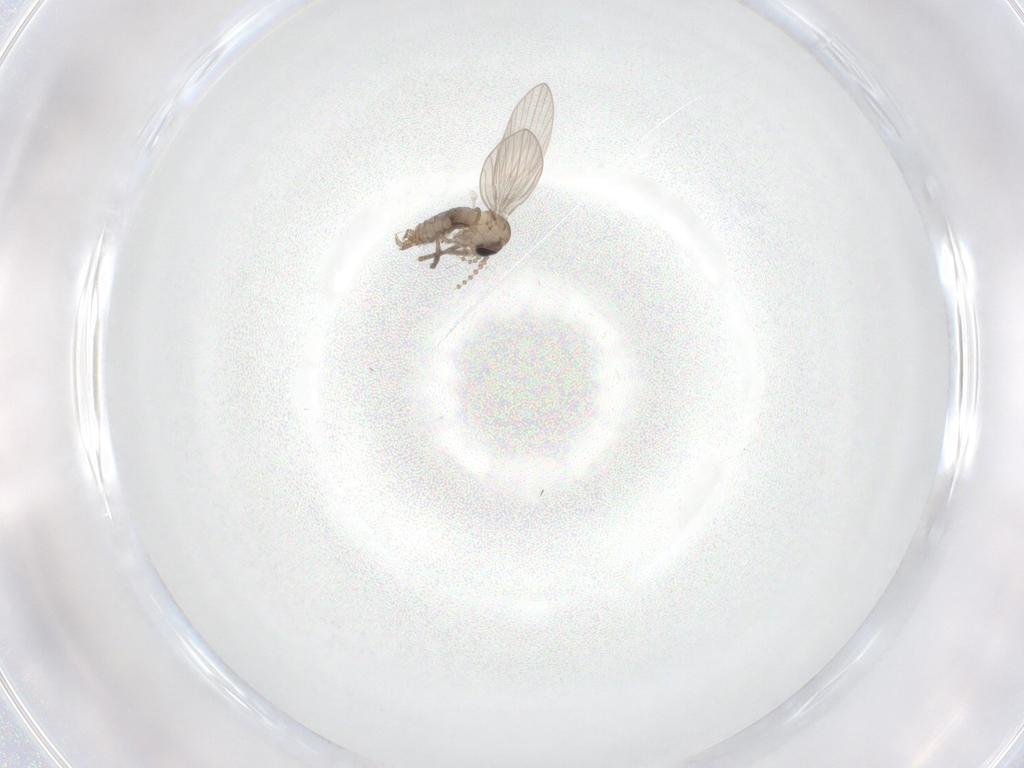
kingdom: Animalia
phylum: Arthropoda
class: Insecta
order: Diptera
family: Psychodidae
